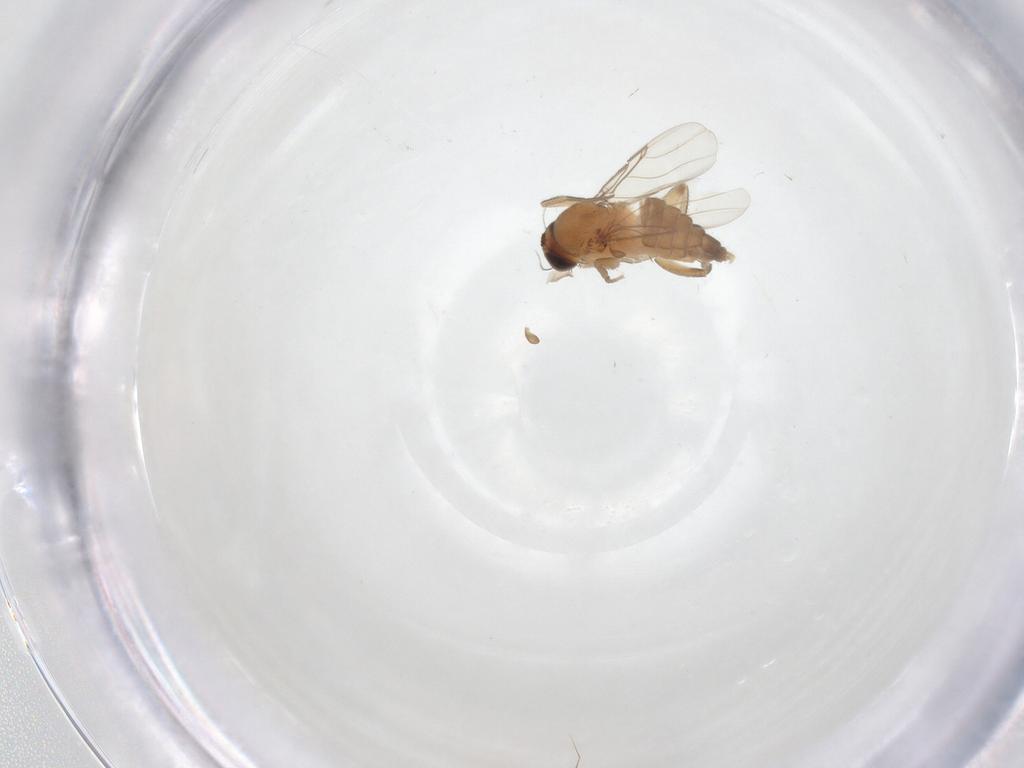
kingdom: Animalia
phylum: Arthropoda
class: Insecta
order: Diptera
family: Phoridae
